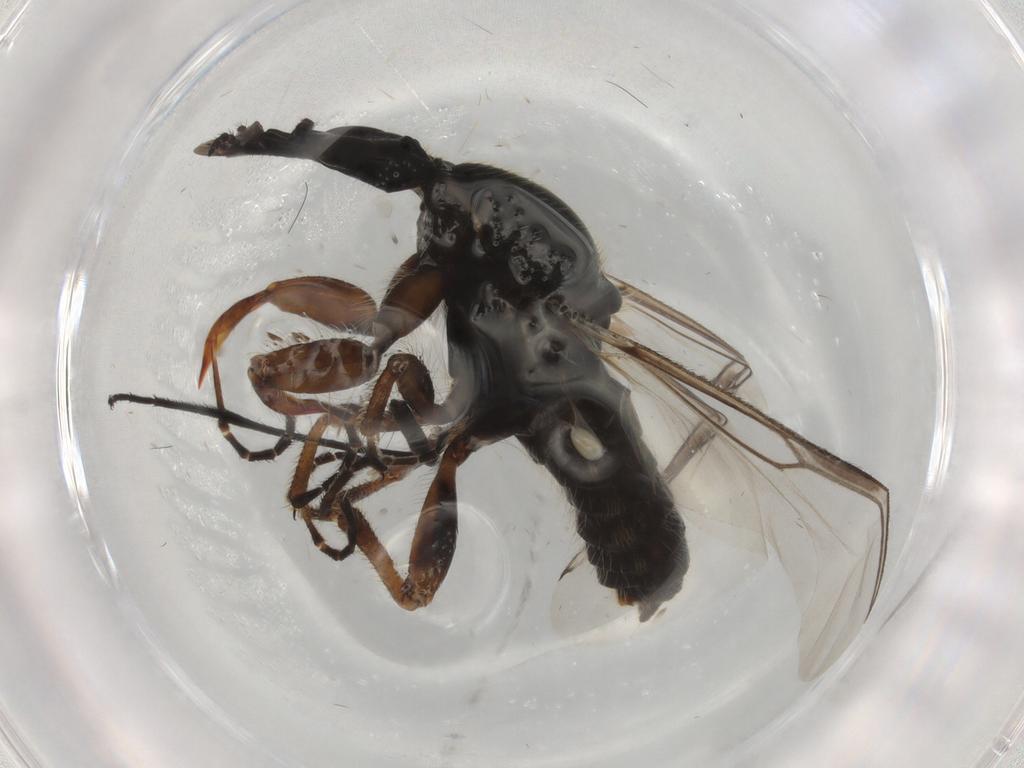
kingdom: Animalia
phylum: Arthropoda
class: Insecta
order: Diptera
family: Bibionidae
